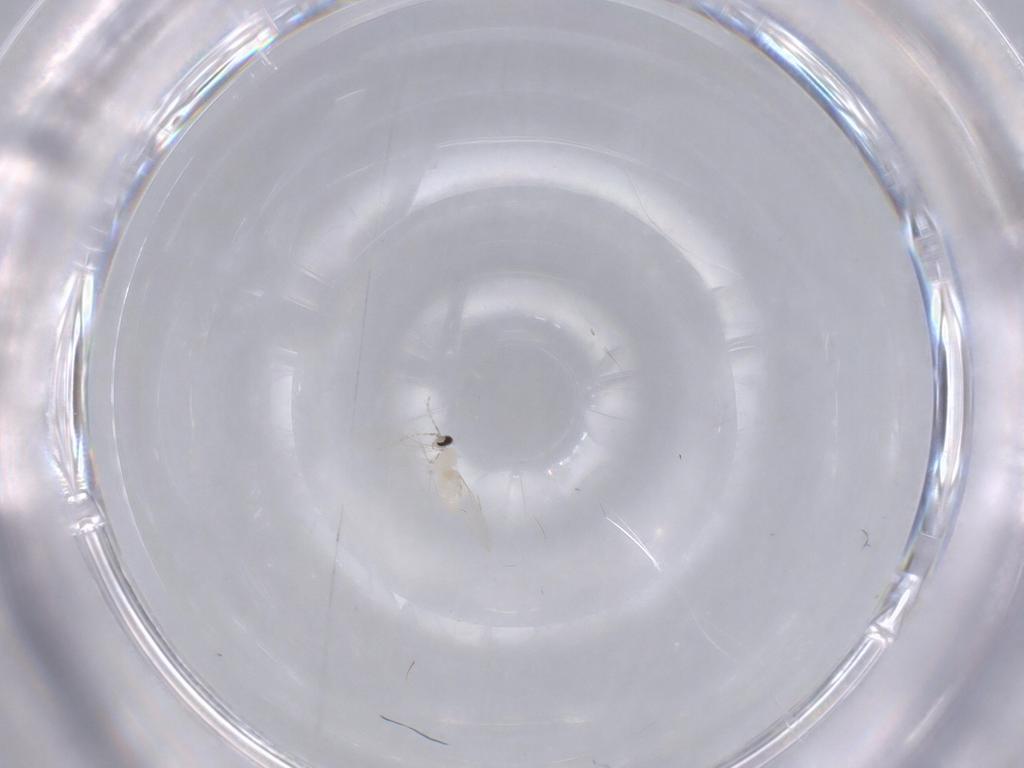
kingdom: Animalia
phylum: Arthropoda
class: Insecta
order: Diptera
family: Cecidomyiidae
